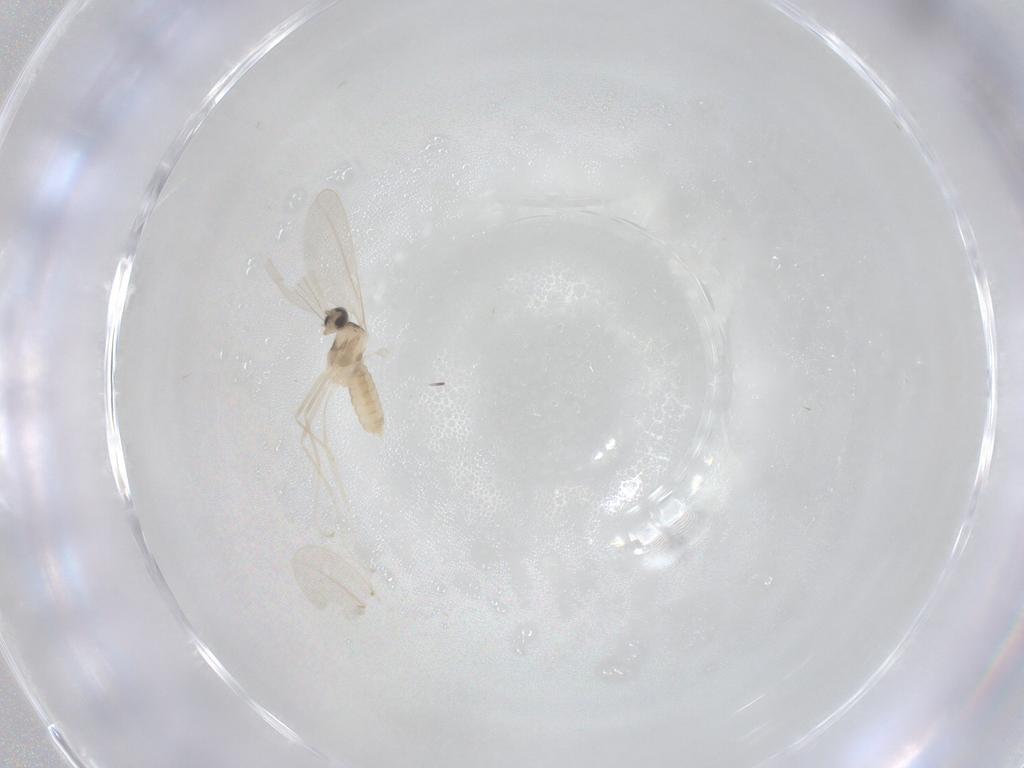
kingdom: Animalia
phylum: Arthropoda
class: Insecta
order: Diptera
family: Cecidomyiidae
